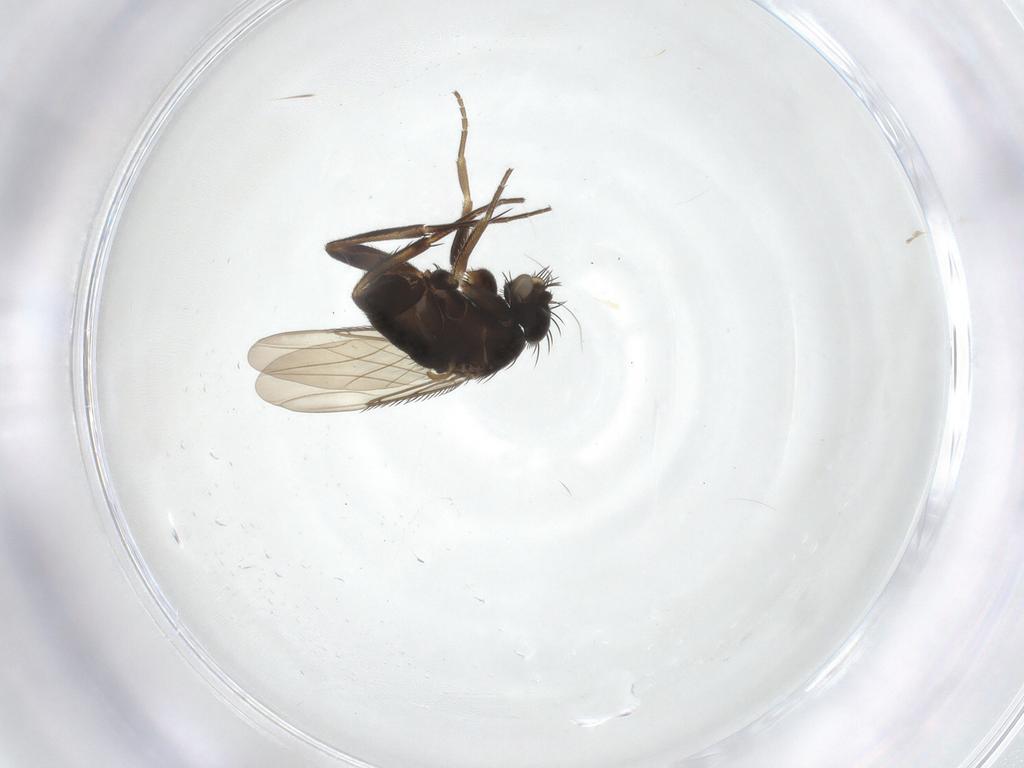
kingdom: Animalia
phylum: Arthropoda
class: Insecta
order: Diptera
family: Phoridae
